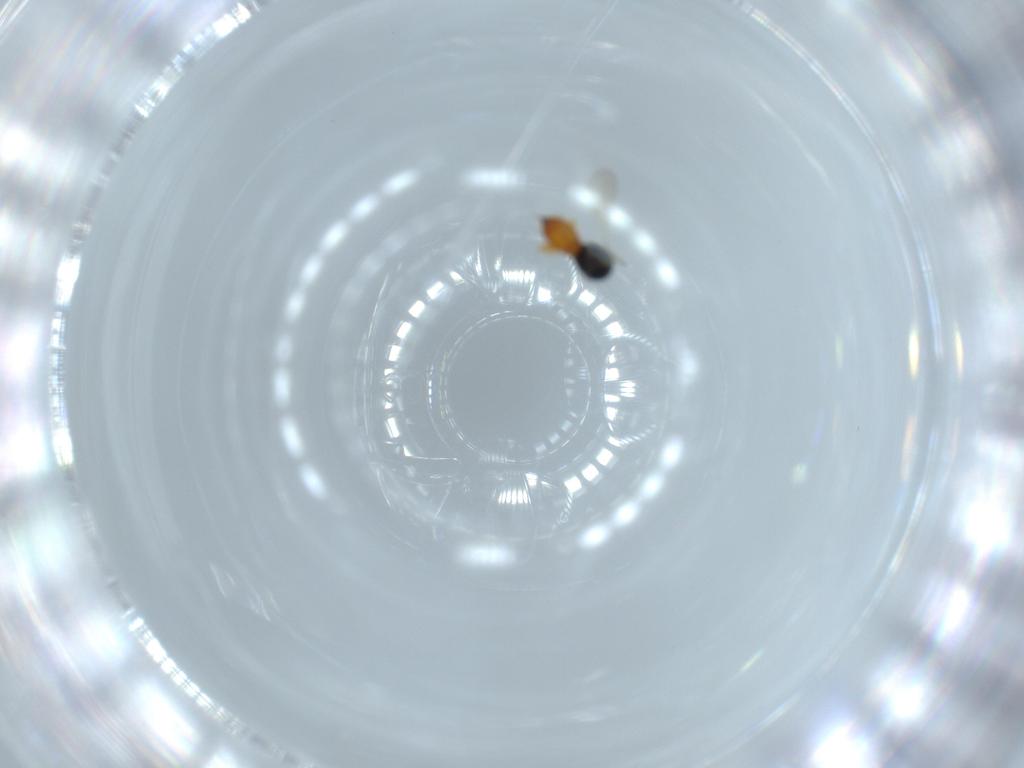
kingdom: Animalia
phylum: Arthropoda
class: Insecta
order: Hymenoptera
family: Scelionidae
